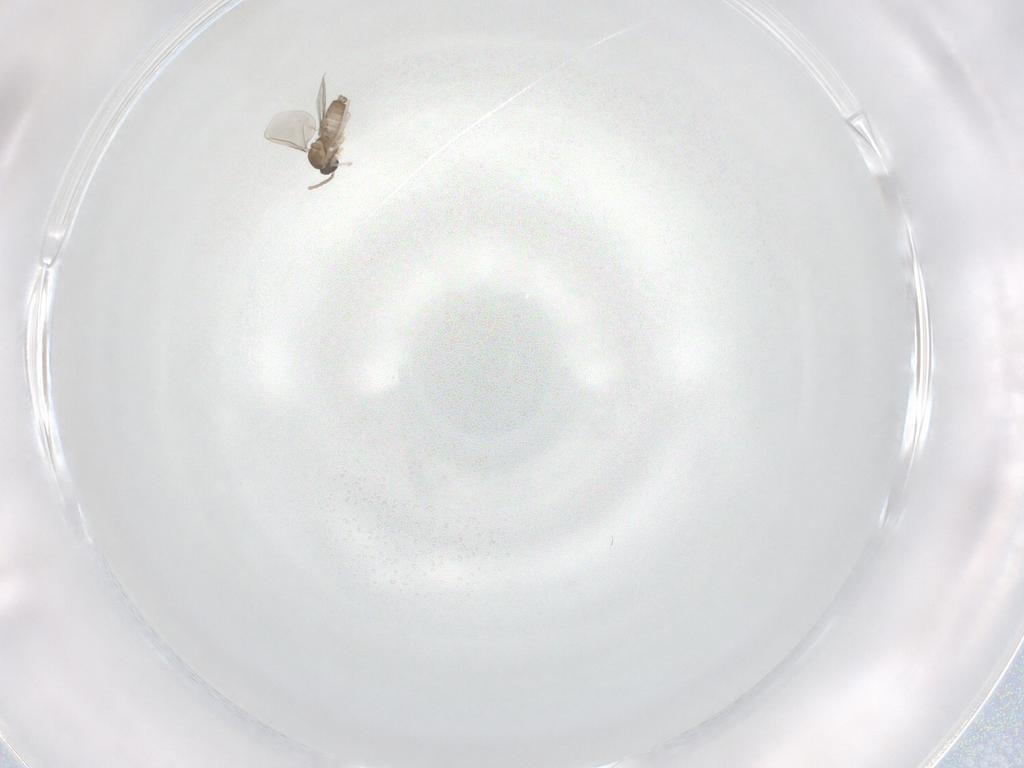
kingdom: Animalia
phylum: Arthropoda
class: Insecta
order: Diptera
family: Cecidomyiidae
